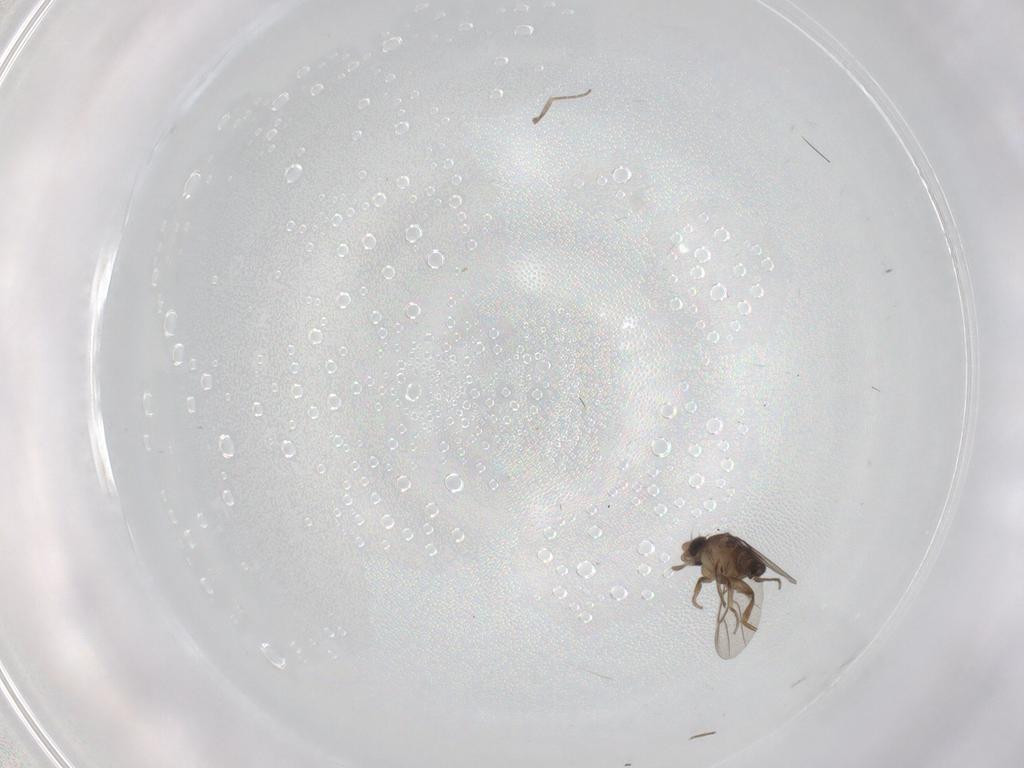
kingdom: Animalia
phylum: Arthropoda
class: Insecta
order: Diptera
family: Phoridae
